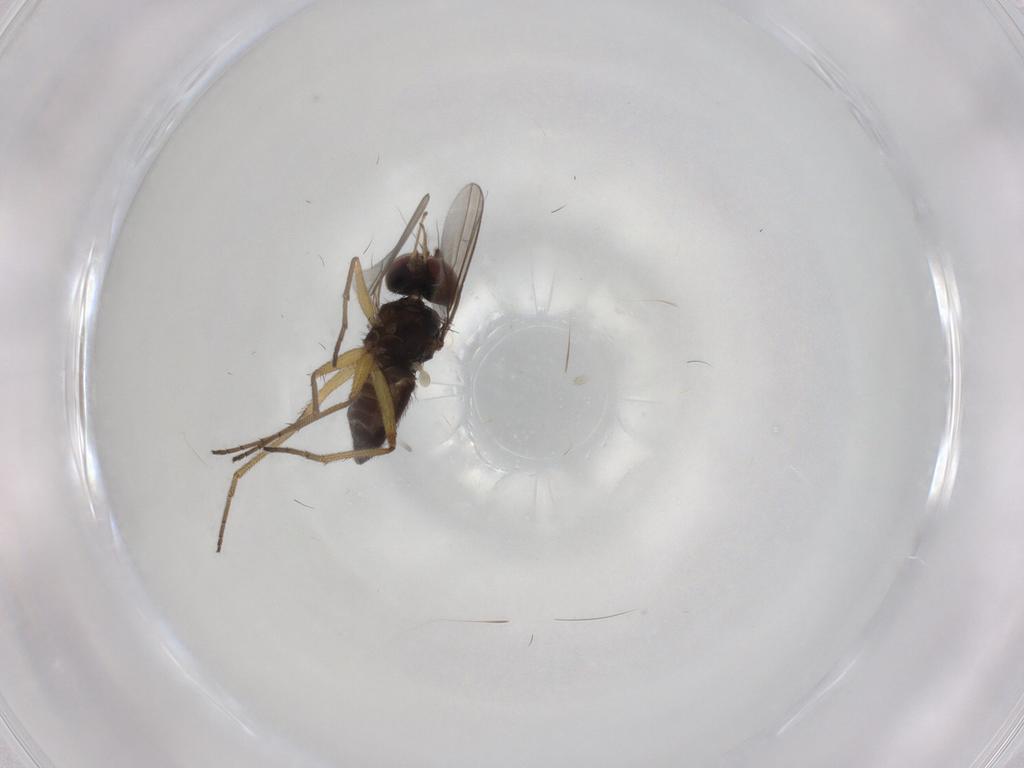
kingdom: Animalia
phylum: Arthropoda
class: Insecta
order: Diptera
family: Dolichopodidae
